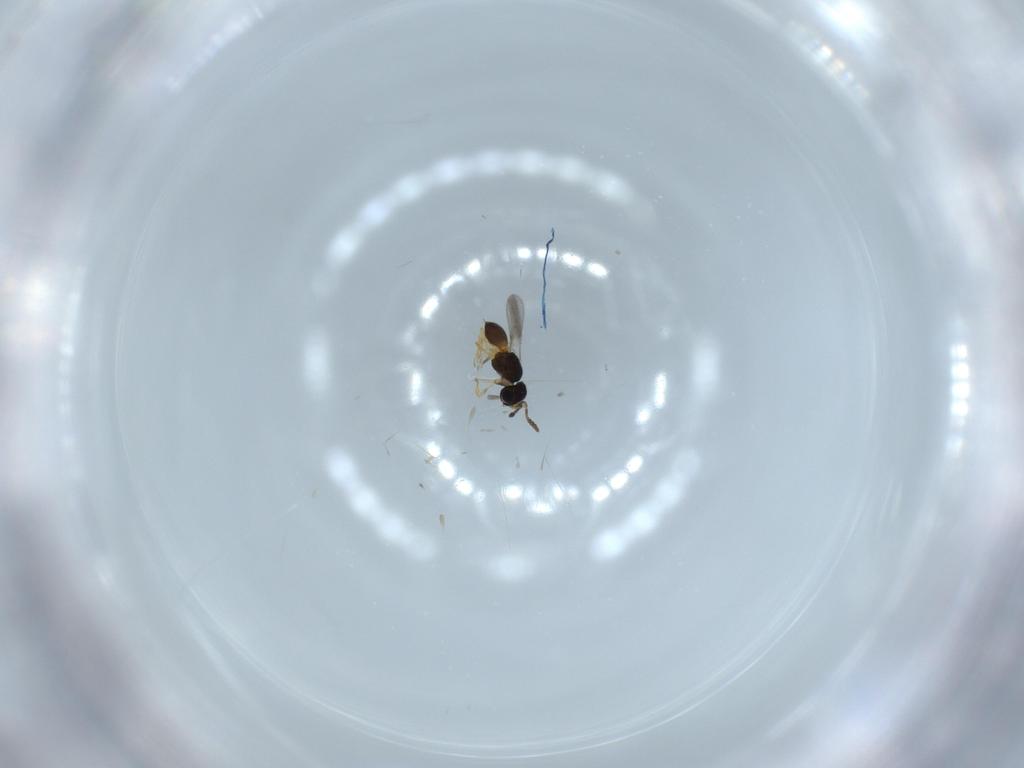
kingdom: Animalia
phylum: Arthropoda
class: Insecta
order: Hymenoptera
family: Scelionidae
